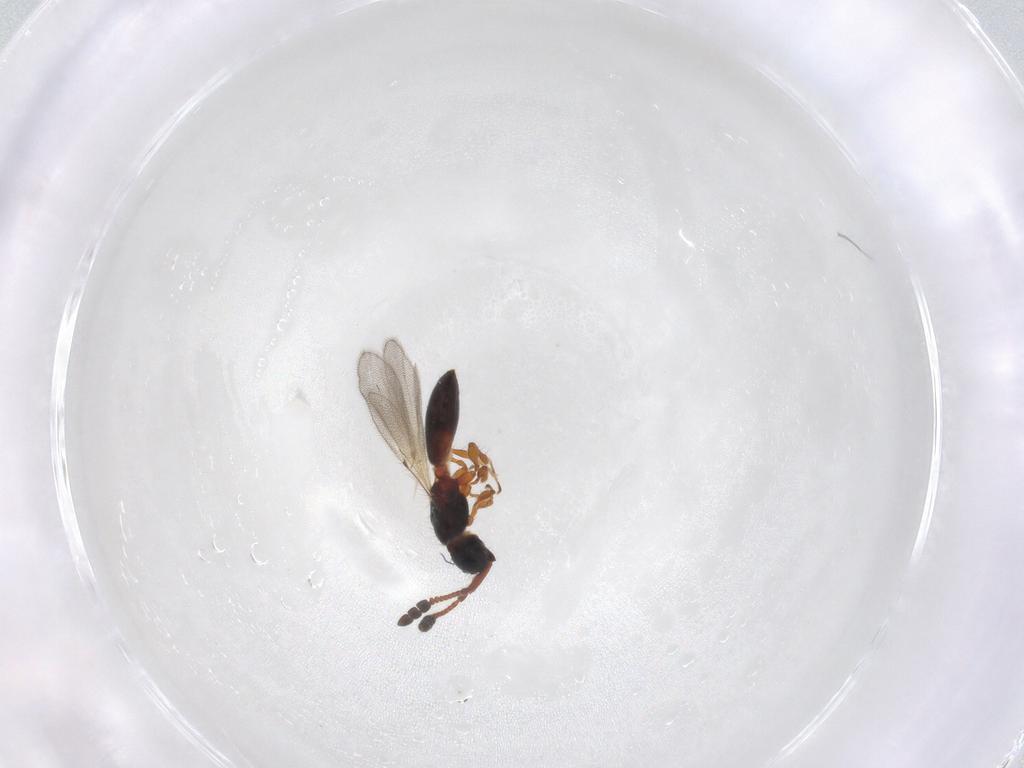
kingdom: Animalia
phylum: Arthropoda
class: Insecta
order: Hymenoptera
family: Diapriidae
